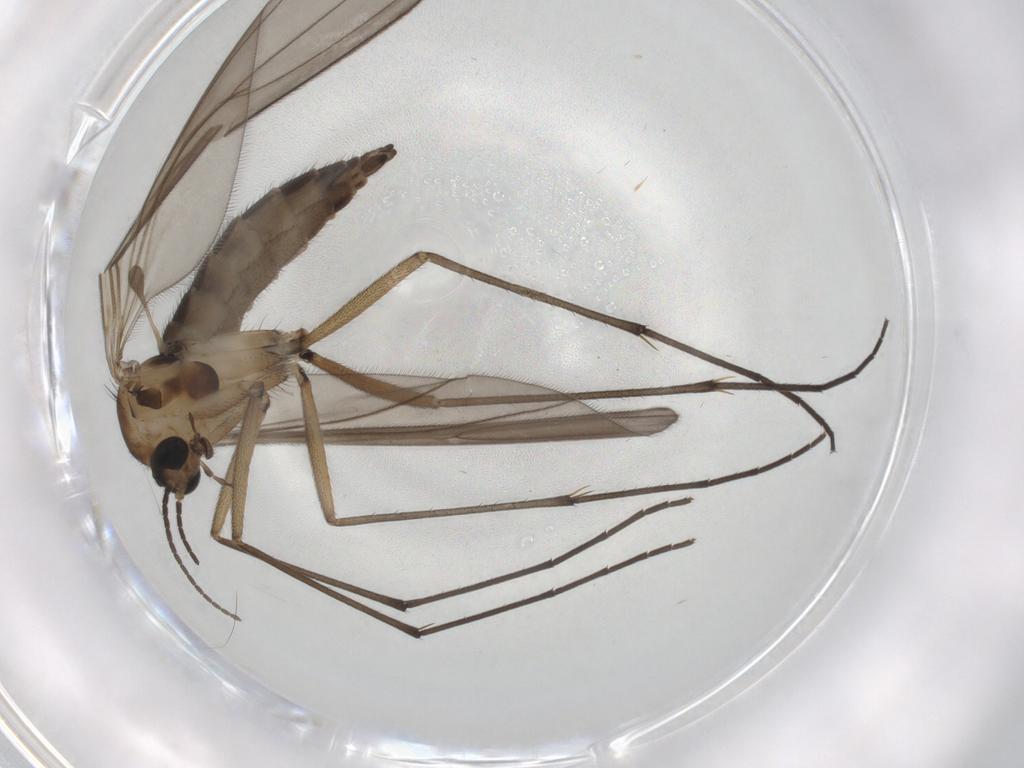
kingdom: Animalia
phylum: Arthropoda
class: Insecta
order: Diptera
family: Sciaridae
